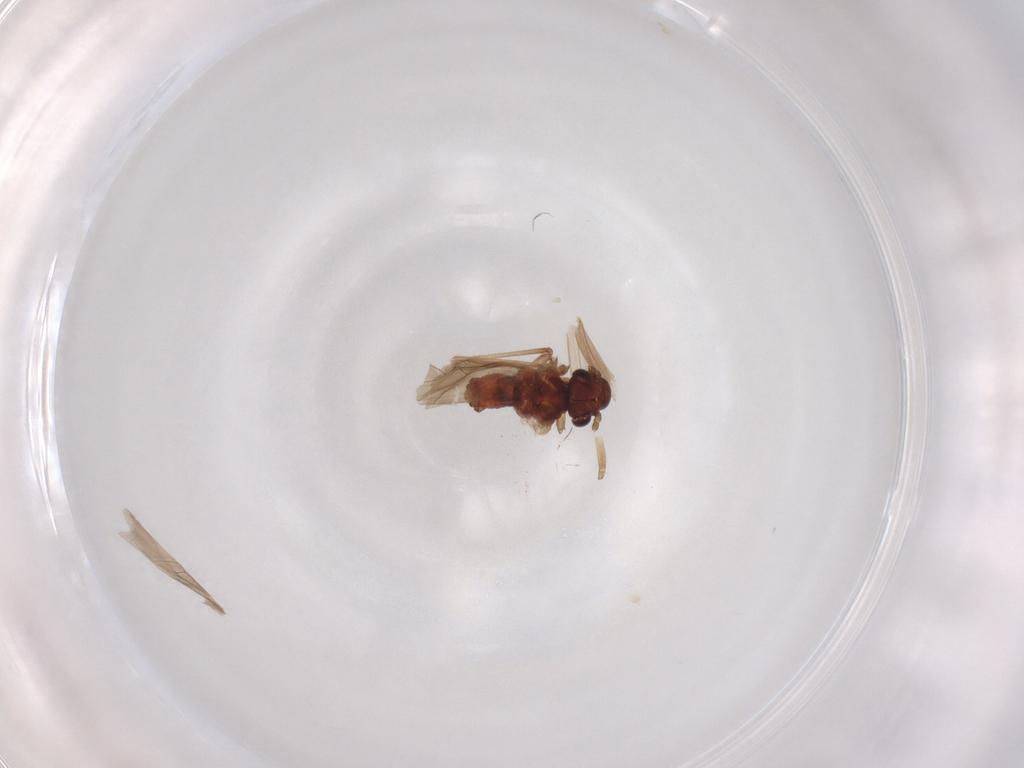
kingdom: Animalia
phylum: Arthropoda
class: Insecta
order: Psocodea
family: Caeciliusidae
